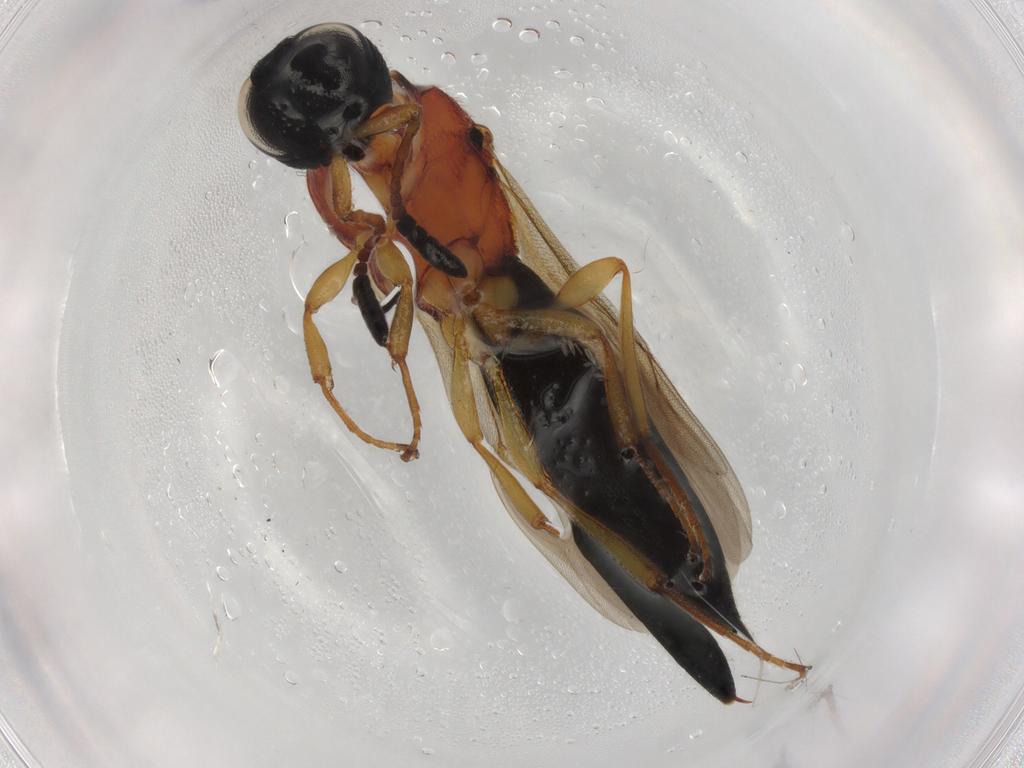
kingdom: Animalia
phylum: Arthropoda
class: Insecta
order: Hymenoptera
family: Scelionidae
